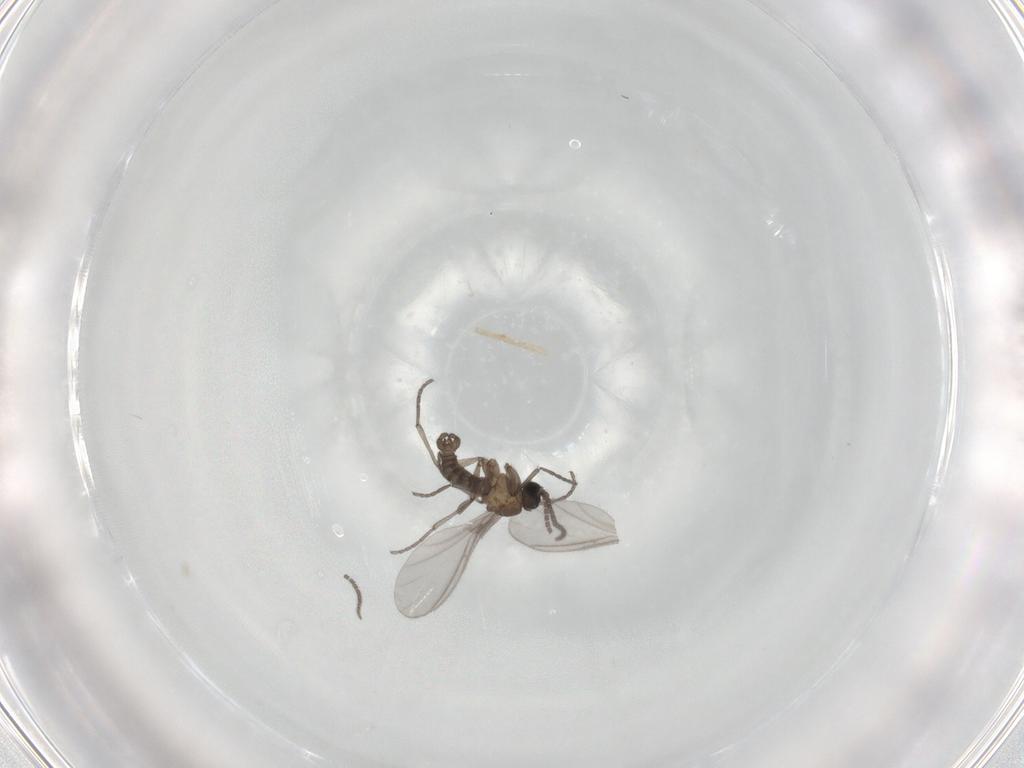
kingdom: Animalia
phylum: Arthropoda
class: Insecta
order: Diptera
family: Sciaridae
